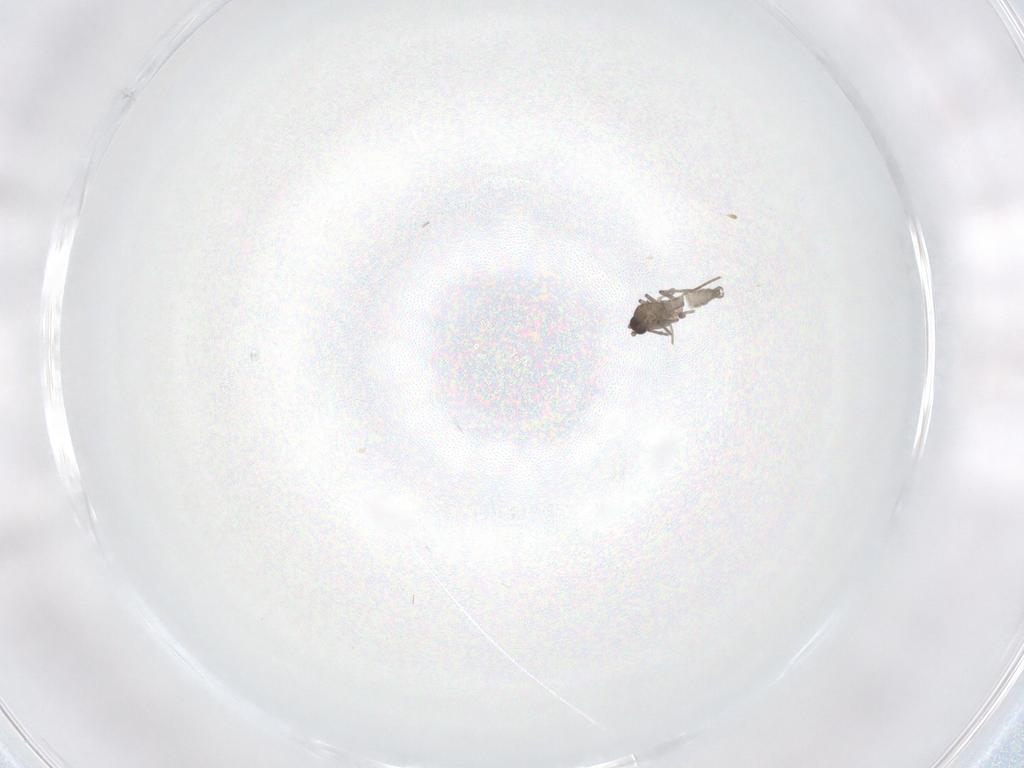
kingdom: Animalia
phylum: Arthropoda
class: Insecta
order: Diptera
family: Sciaridae
